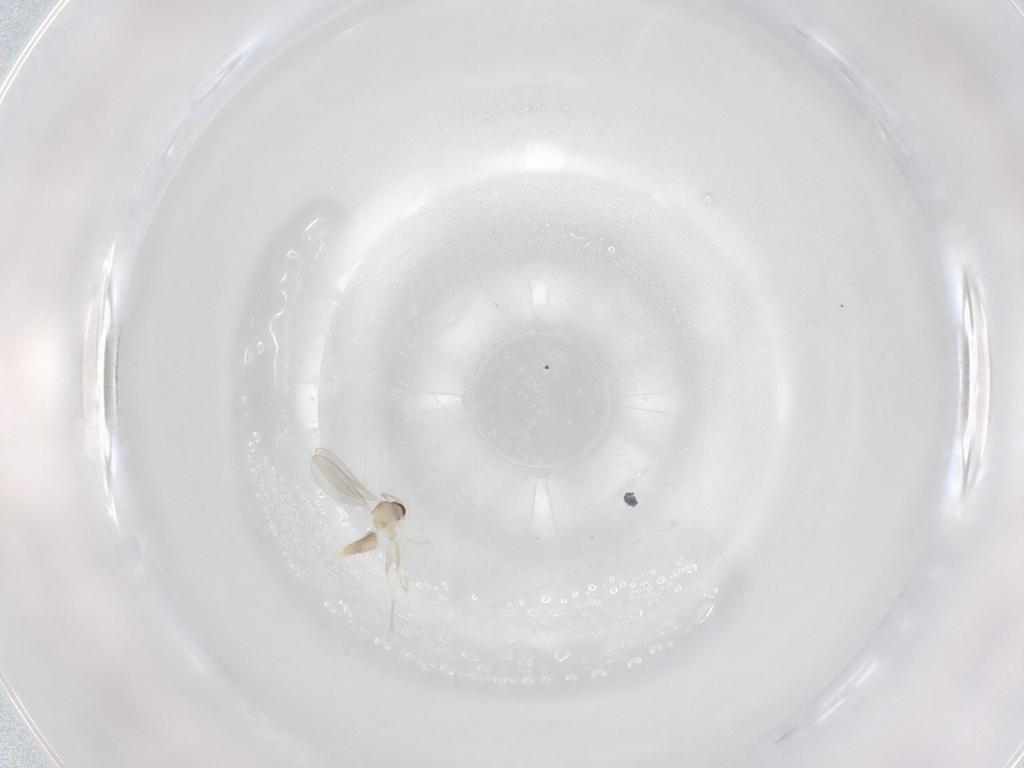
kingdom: Animalia
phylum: Arthropoda
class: Insecta
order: Diptera
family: Cecidomyiidae
